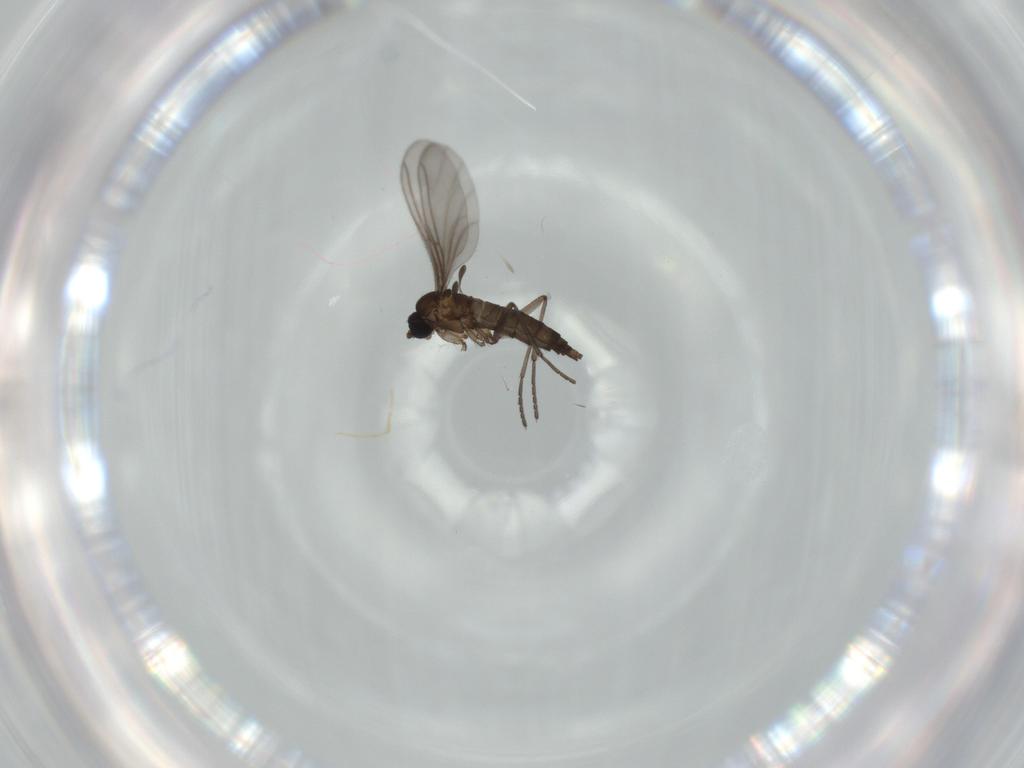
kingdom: Animalia
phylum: Arthropoda
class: Insecta
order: Diptera
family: Sciaridae
